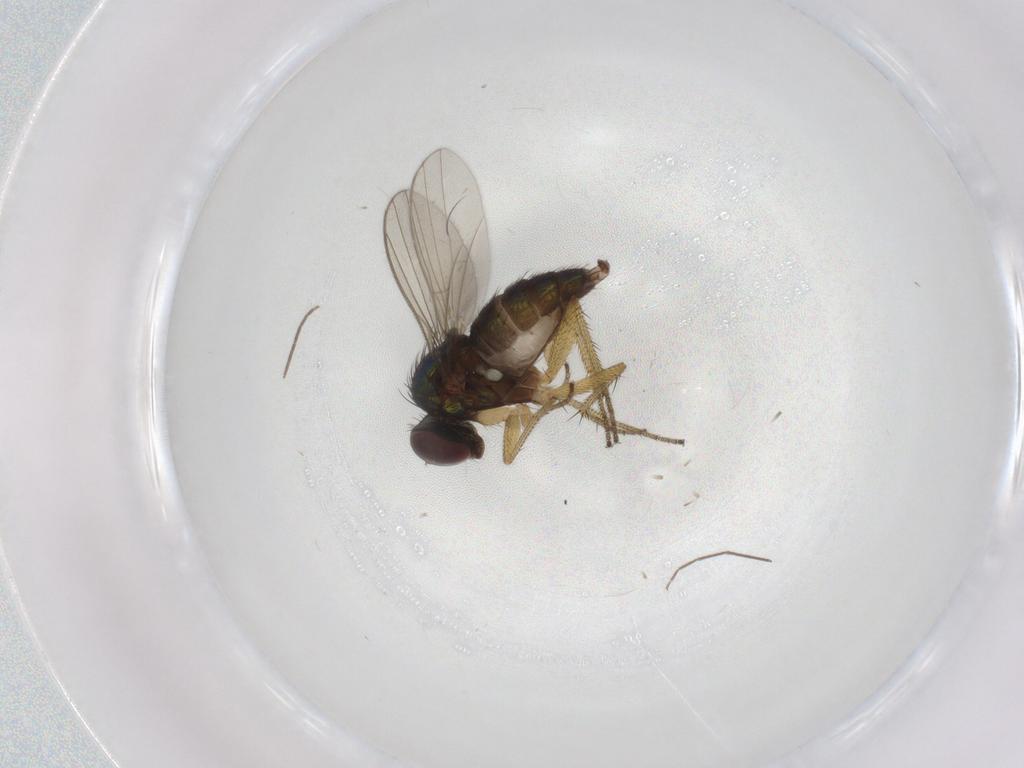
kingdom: Animalia
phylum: Arthropoda
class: Insecta
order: Diptera
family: Chironomidae
